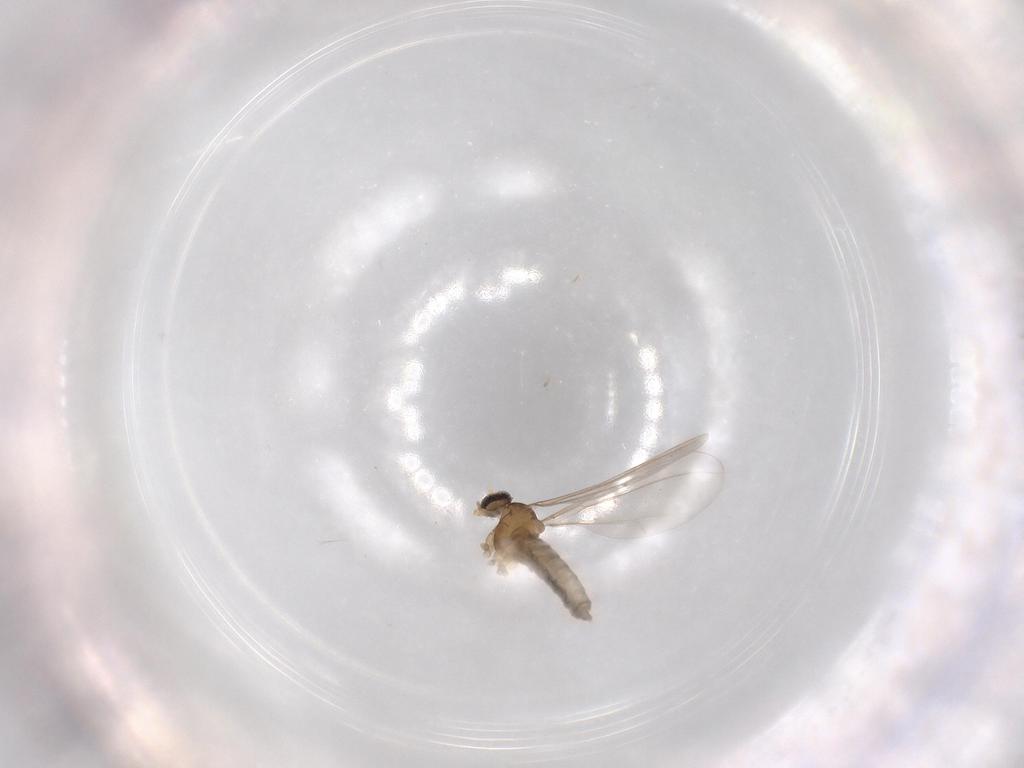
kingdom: Animalia
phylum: Arthropoda
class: Insecta
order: Diptera
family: Cecidomyiidae
